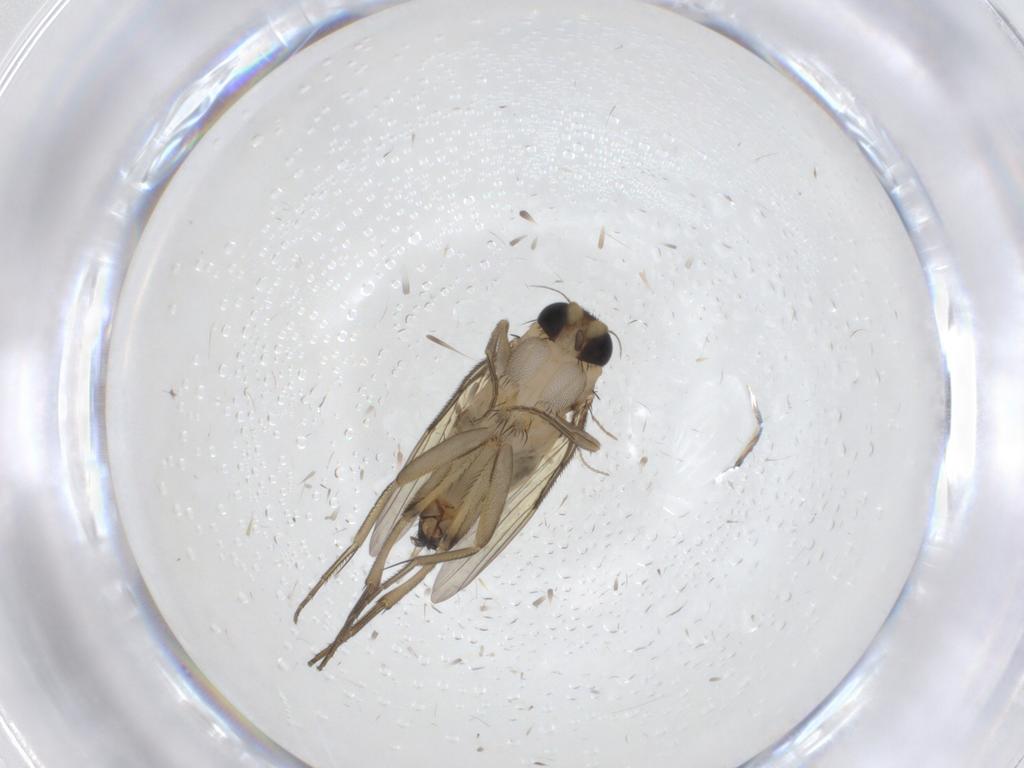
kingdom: Animalia
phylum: Arthropoda
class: Insecta
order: Diptera
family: Phoridae
